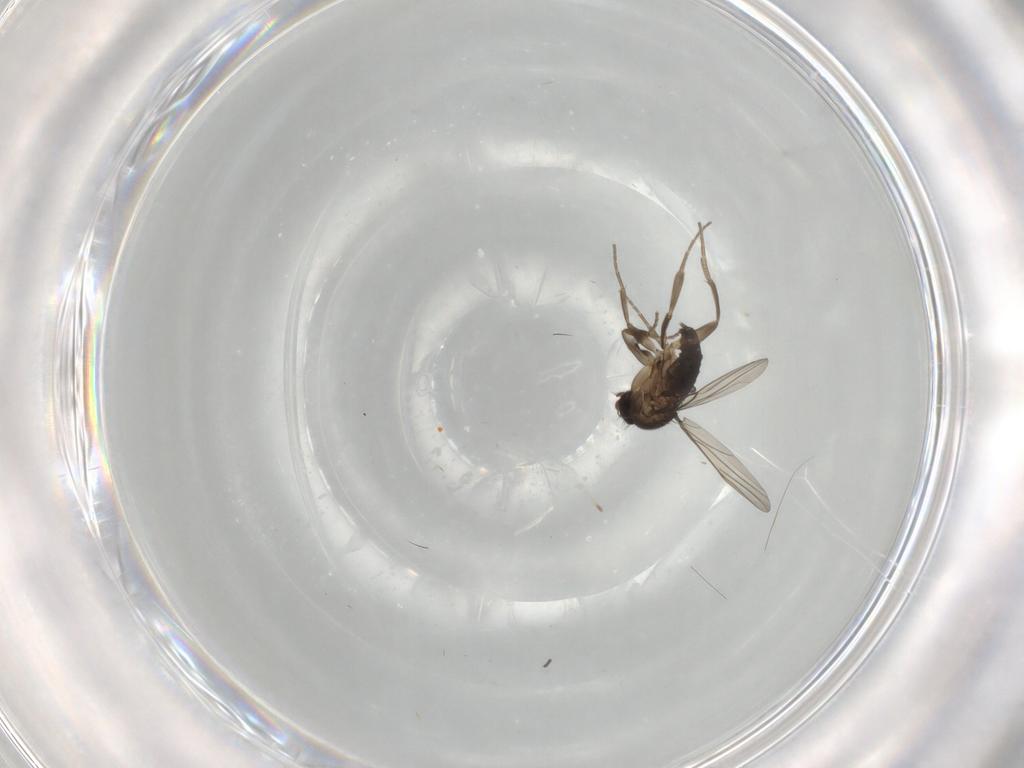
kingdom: Animalia
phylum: Arthropoda
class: Insecta
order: Diptera
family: Phoridae
